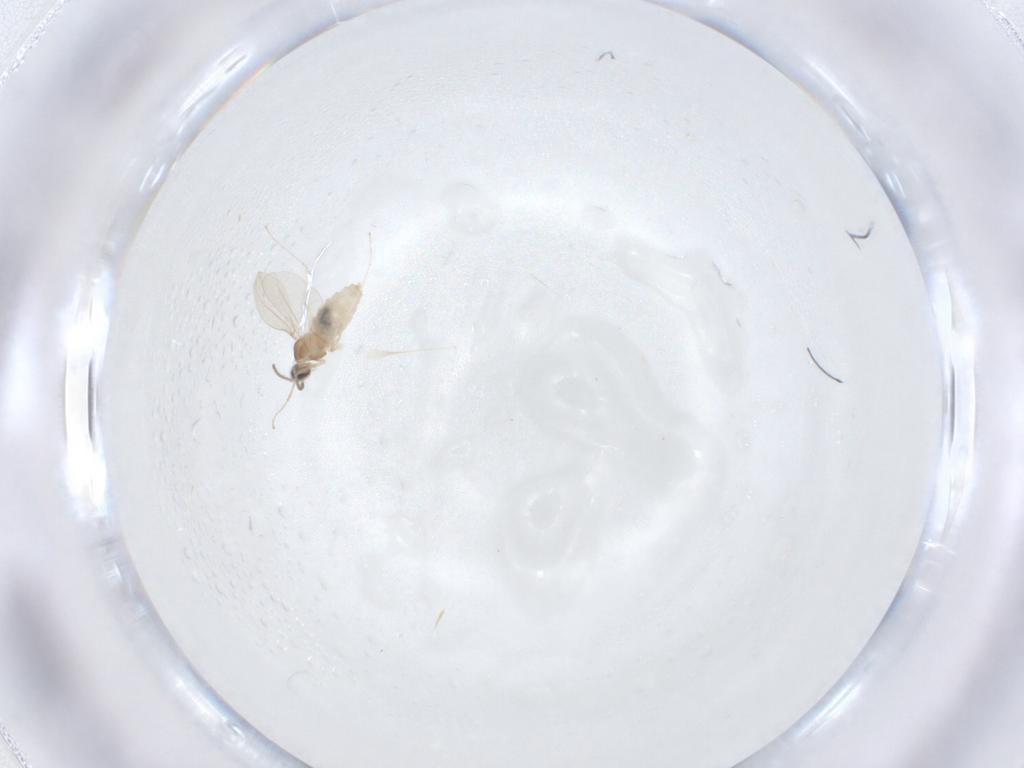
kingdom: Animalia
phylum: Arthropoda
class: Insecta
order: Diptera
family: Cecidomyiidae
